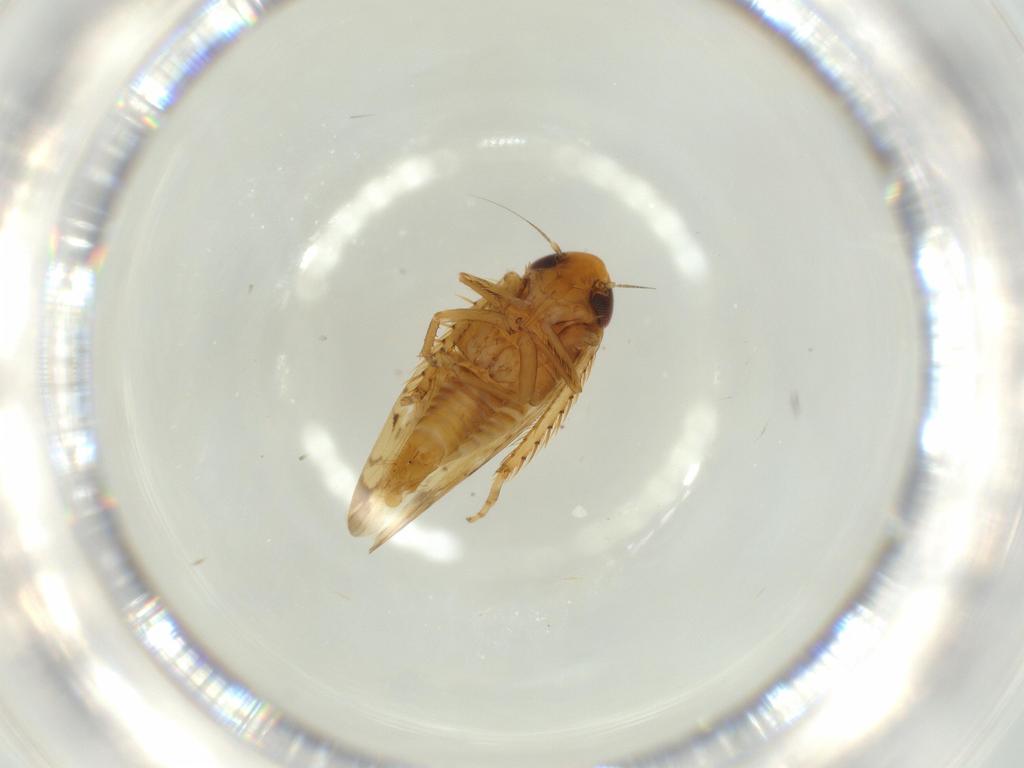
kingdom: Animalia
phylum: Arthropoda
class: Insecta
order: Hemiptera
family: Cicadellidae
